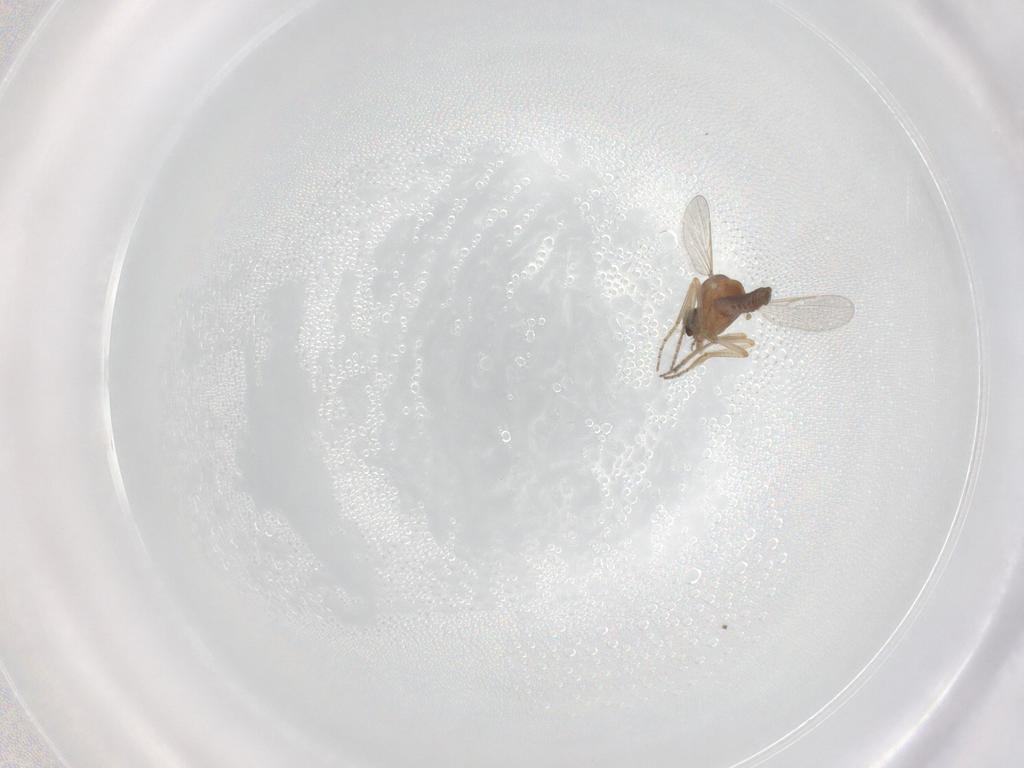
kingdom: Animalia
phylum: Arthropoda
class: Insecta
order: Diptera
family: Ceratopogonidae
